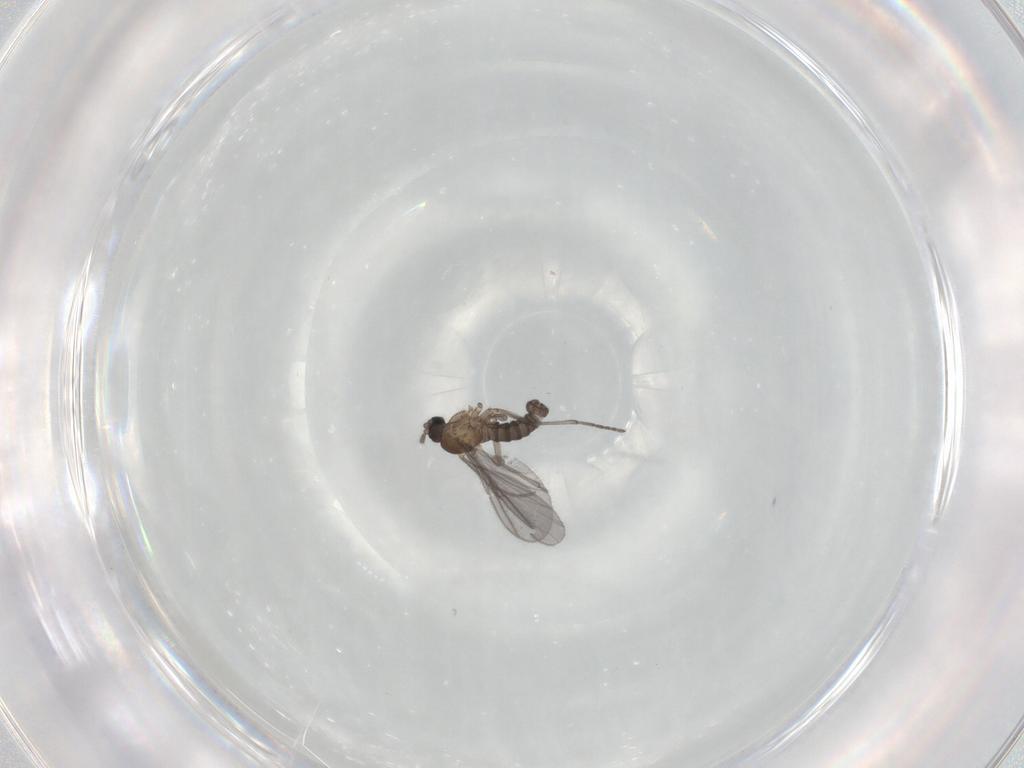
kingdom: Animalia
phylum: Arthropoda
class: Insecta
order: Diptera
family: Sciaridae
